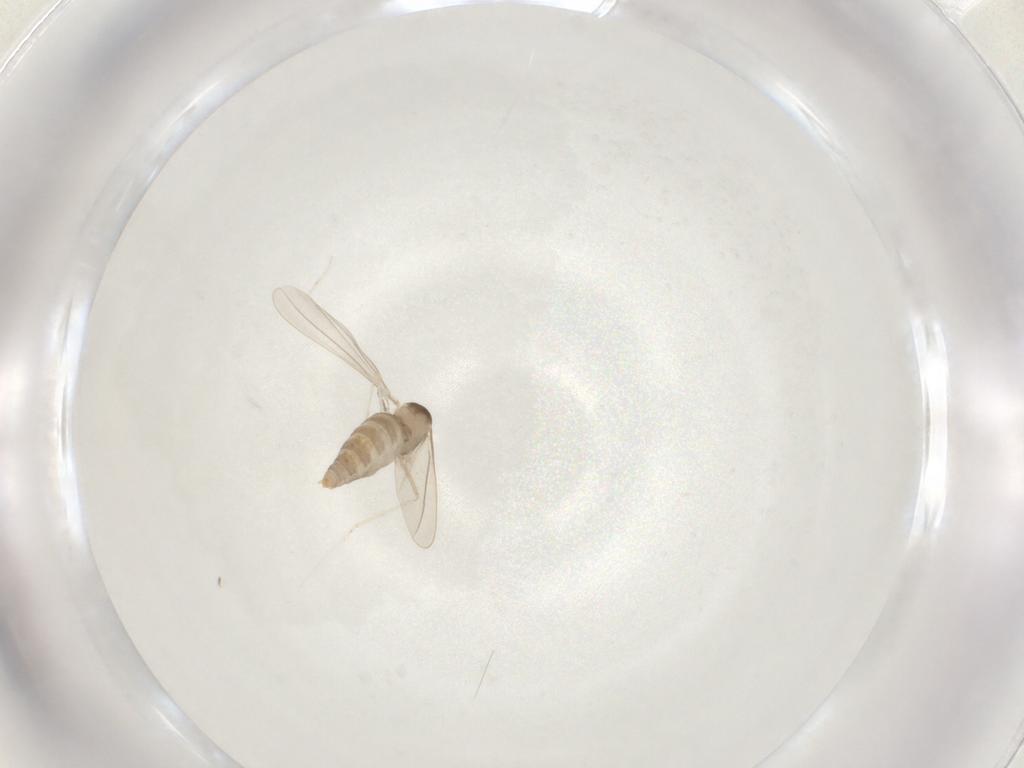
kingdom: Animalia
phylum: Arthropoda
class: Insecta
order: Diptera
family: Cecidomyiidae
